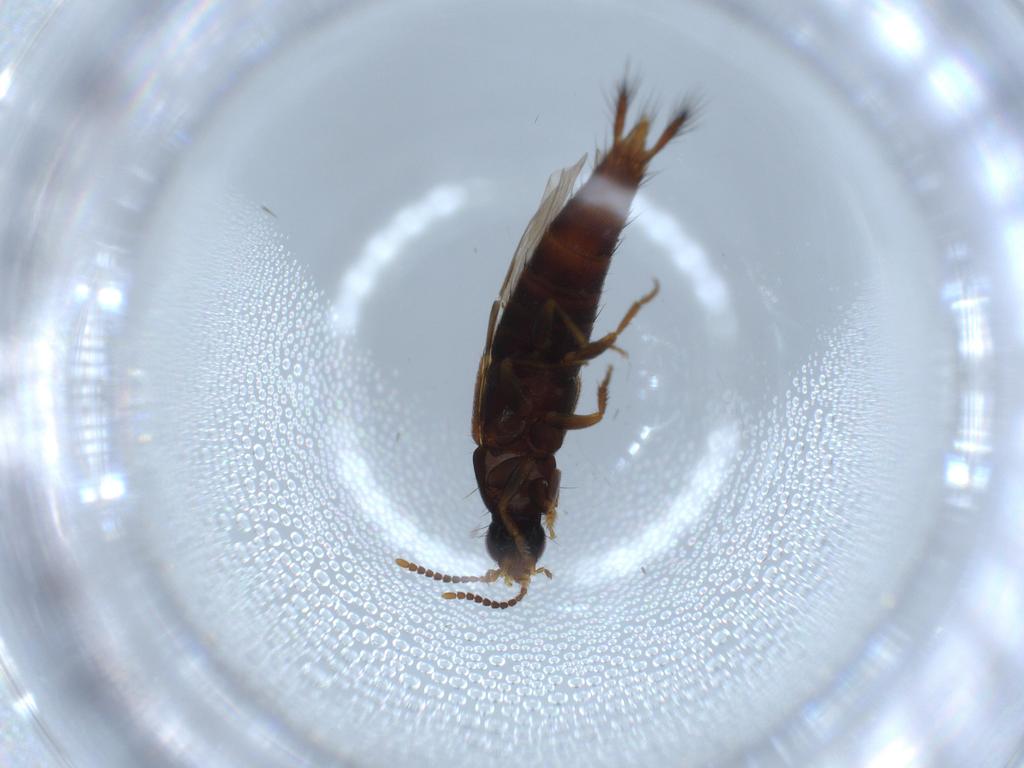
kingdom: Animalia
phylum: Arthropoda
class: Insecta
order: Coleoptera
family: Staphylinidae
